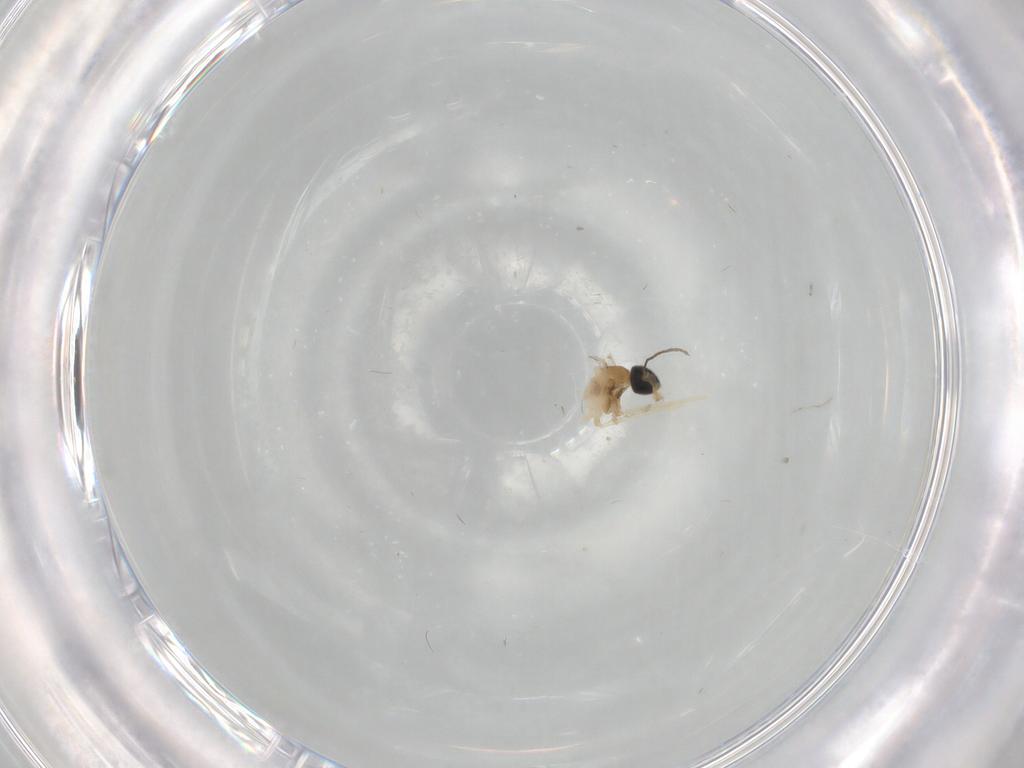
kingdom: Animalia
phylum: Arthropoda
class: Insecta
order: Diptera
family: Cecidomyiidae
